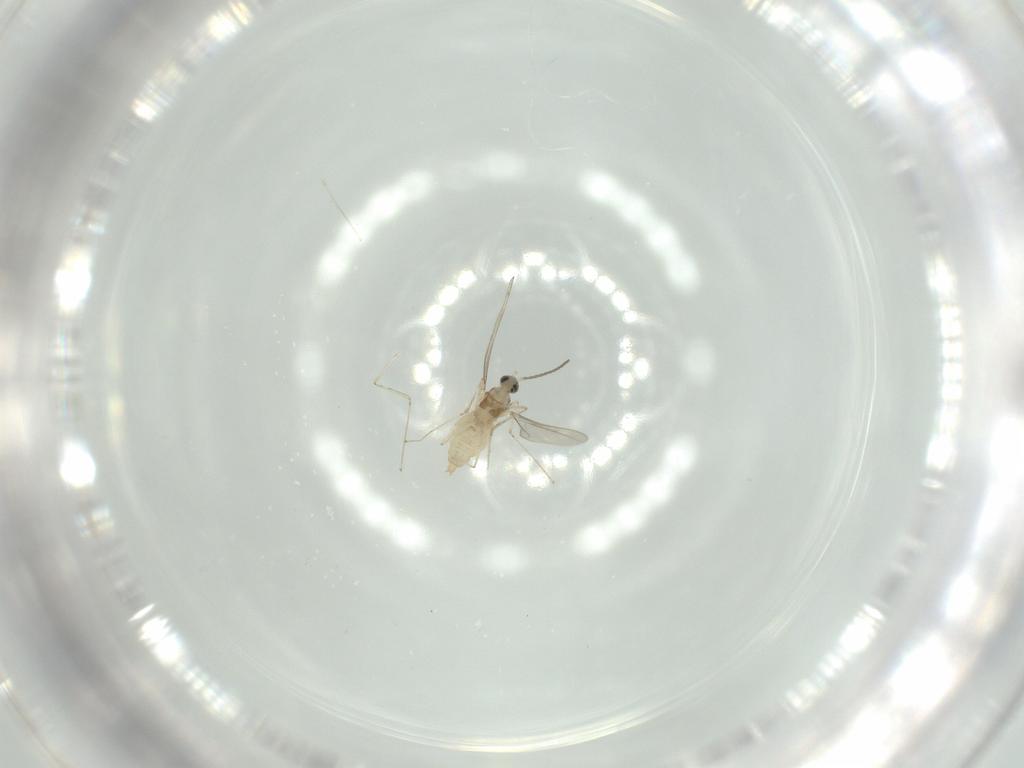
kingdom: Animalia
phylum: Arthropoda
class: Insecta
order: Diptera
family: Cecidomyiidae
